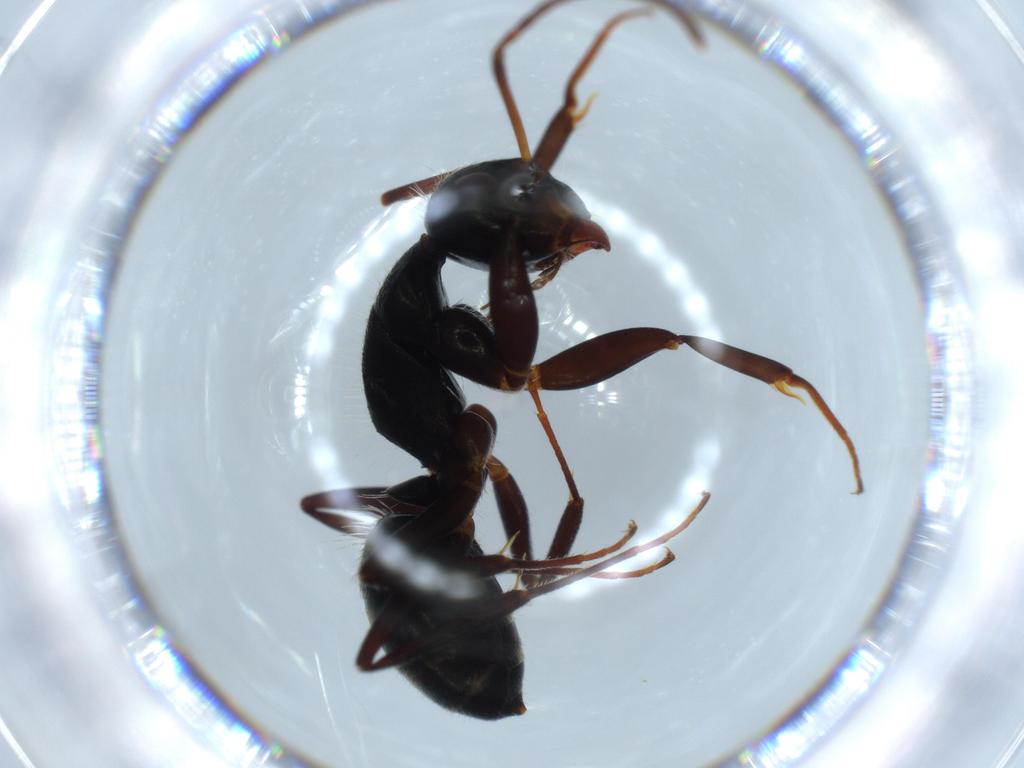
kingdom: Animalia
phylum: Arthropoda
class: Insecta
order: Hymenoptera
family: Formicidae
